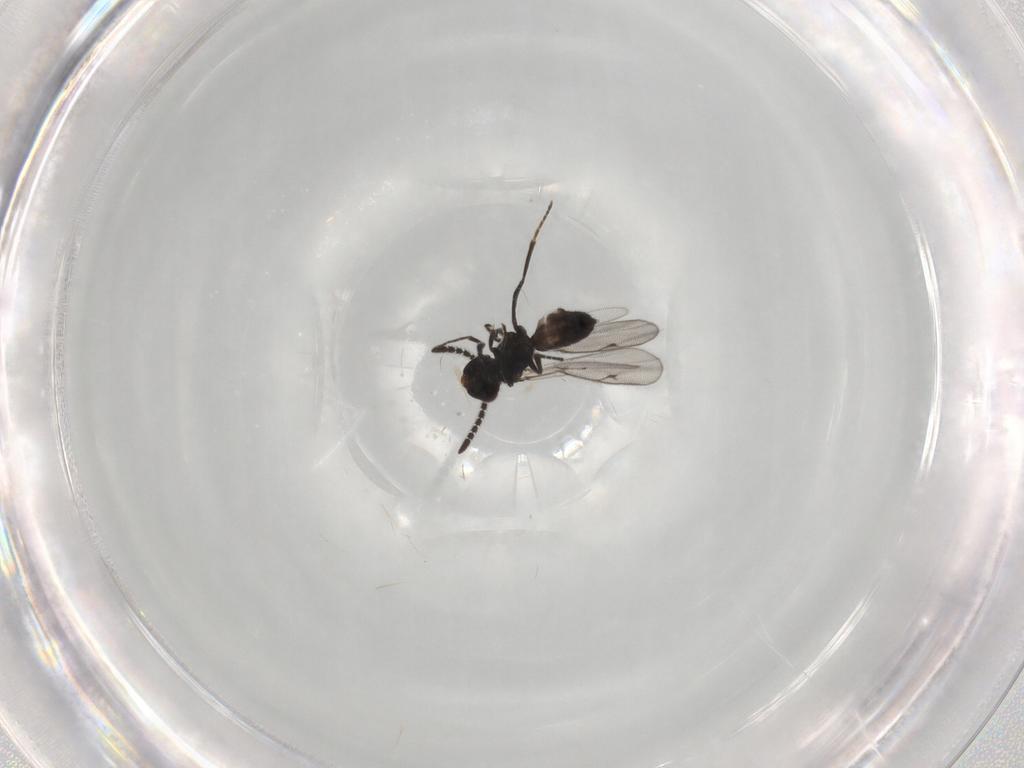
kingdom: Animalia
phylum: Arthropoda
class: Insecta
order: Hymenoptera
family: Eupelmidae
